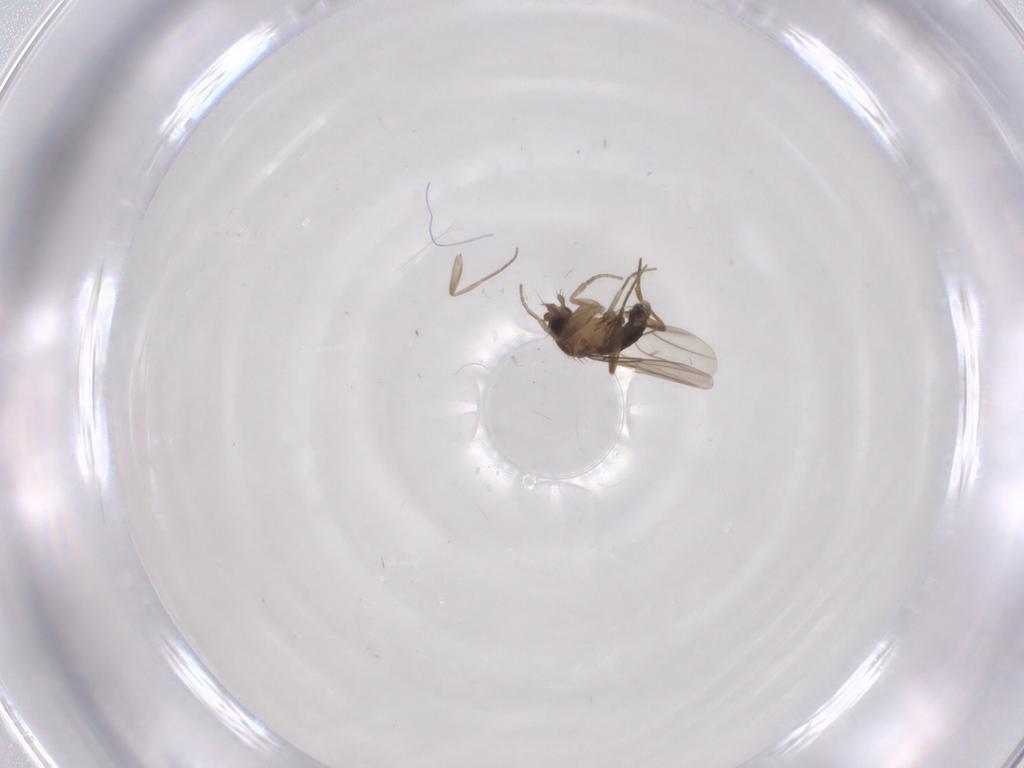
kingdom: Animalia
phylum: Arthropoda
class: Insecta
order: Diptera
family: Phoridae
